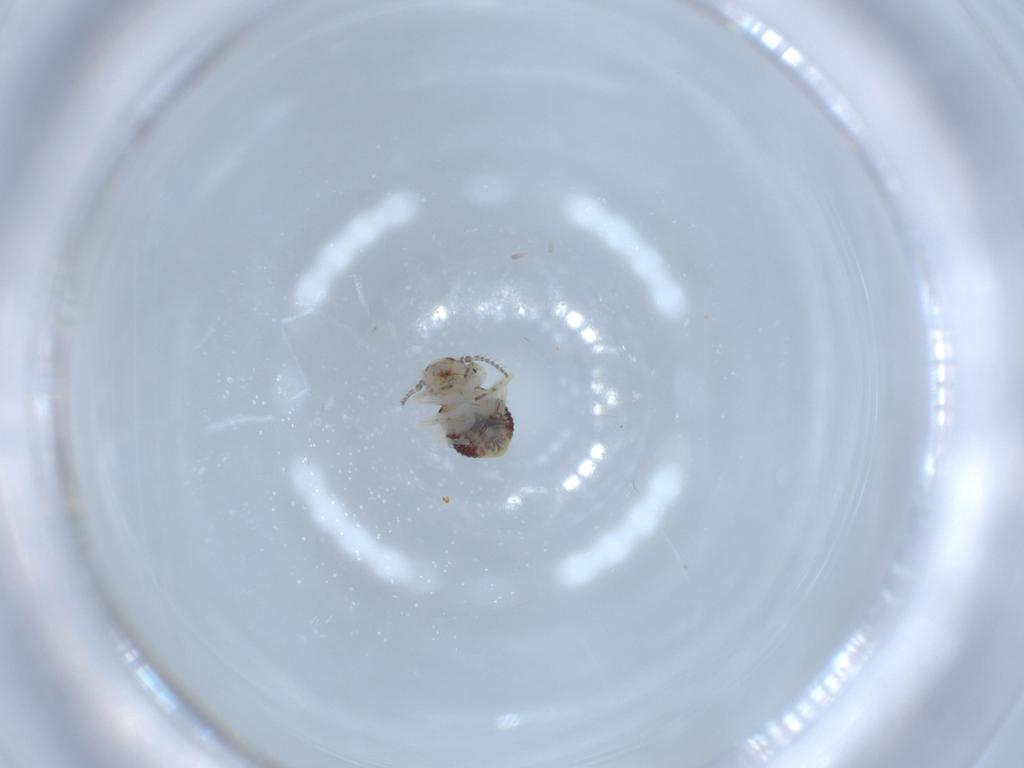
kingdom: Animalia
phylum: Arthropoda
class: Insecta
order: Psocodea
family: Psocidae
